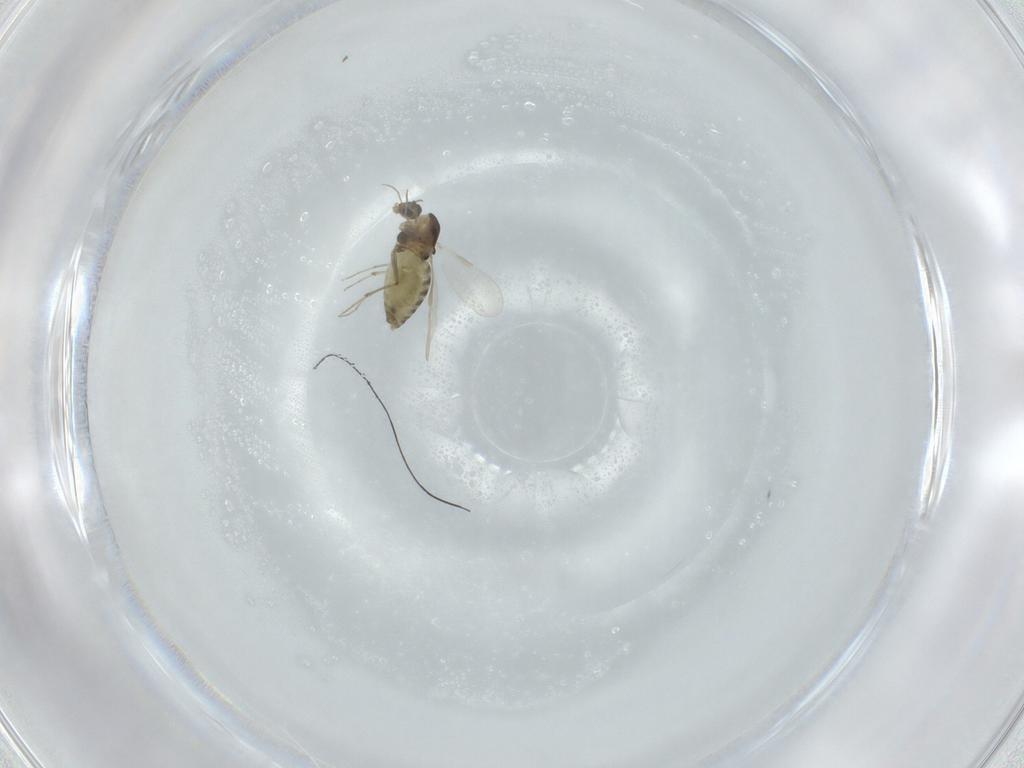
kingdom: Animalia
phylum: Arthropoda
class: Insecta
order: Diptera
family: Chironomidae
